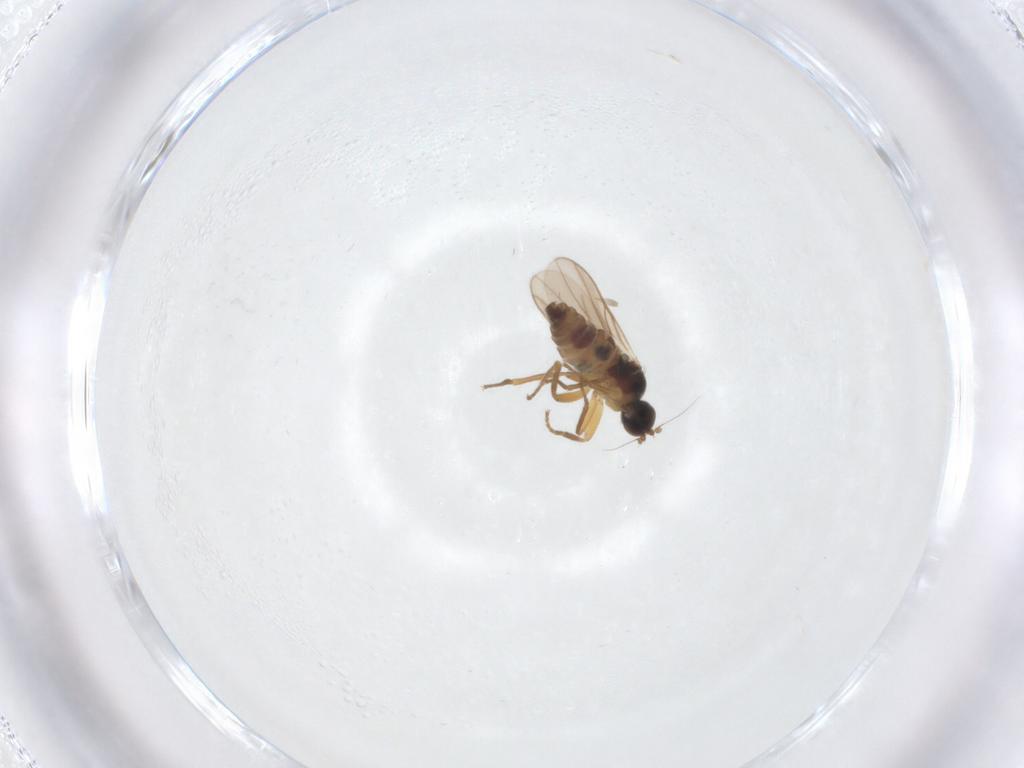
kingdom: Animalia
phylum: Arthropoda
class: Insecta
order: Diptera
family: Hybotidae
